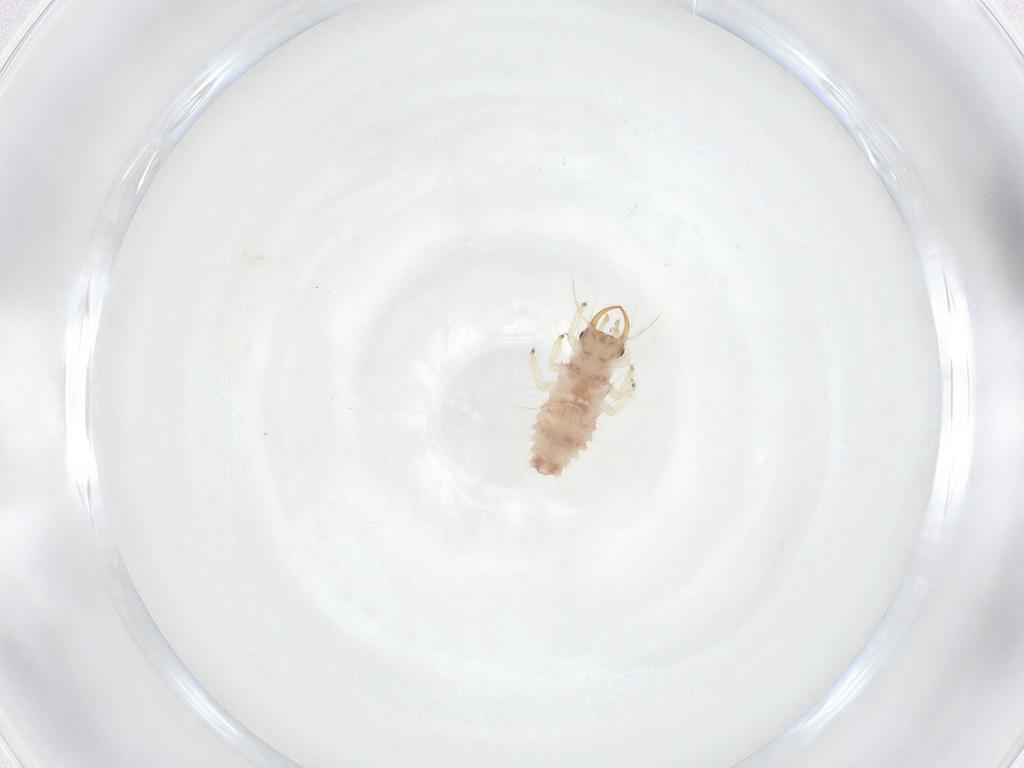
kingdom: Animalia
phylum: Arthropoda
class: Insecta
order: Neuroptera
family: Chrysopidae
